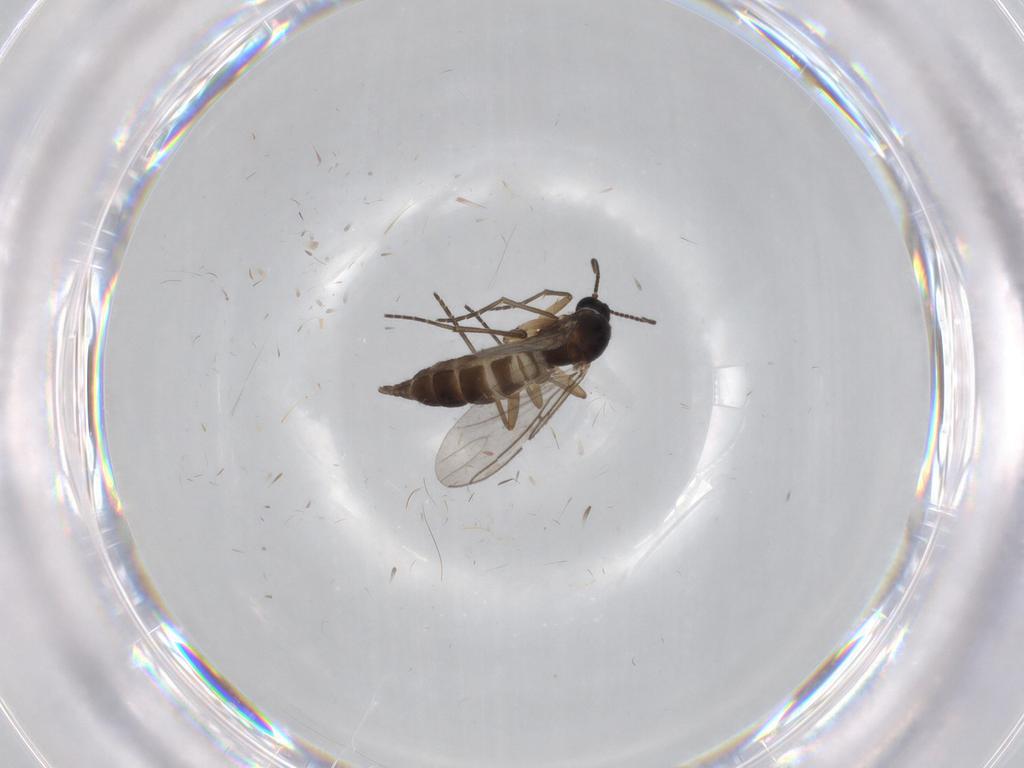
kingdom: Animalia
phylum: Arthropoda
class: Insecta
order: Diptera
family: Sciaridae
